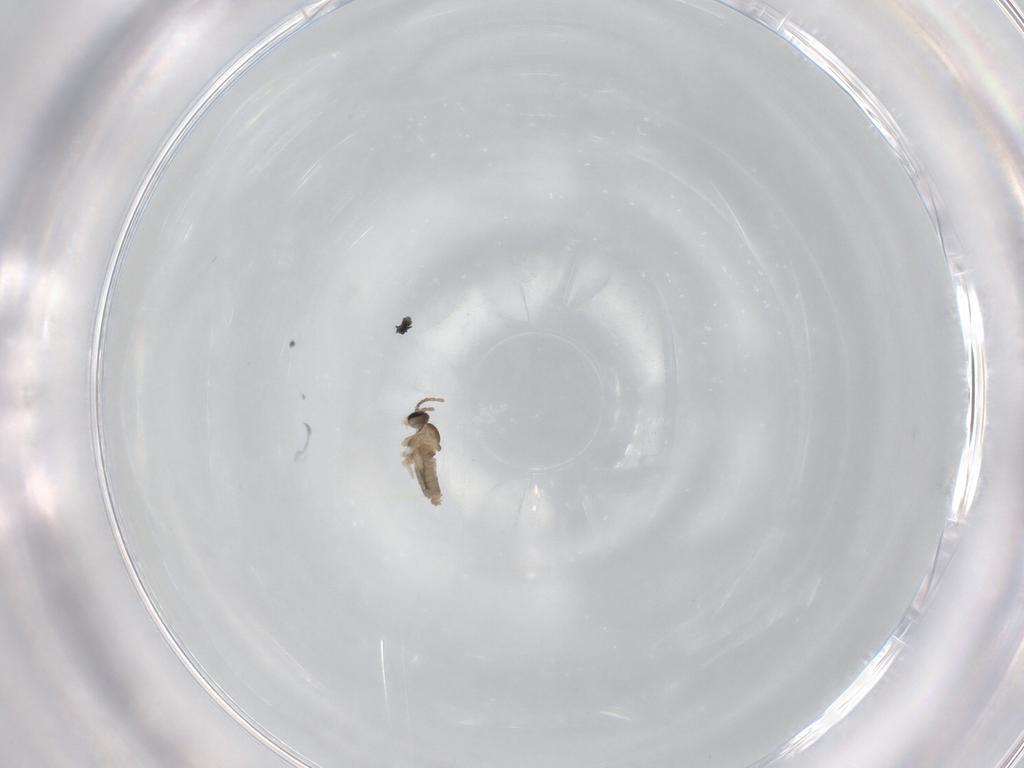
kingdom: Animalia
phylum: Arthropoda
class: Insecta
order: Diptera
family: Cecidomyiidae
